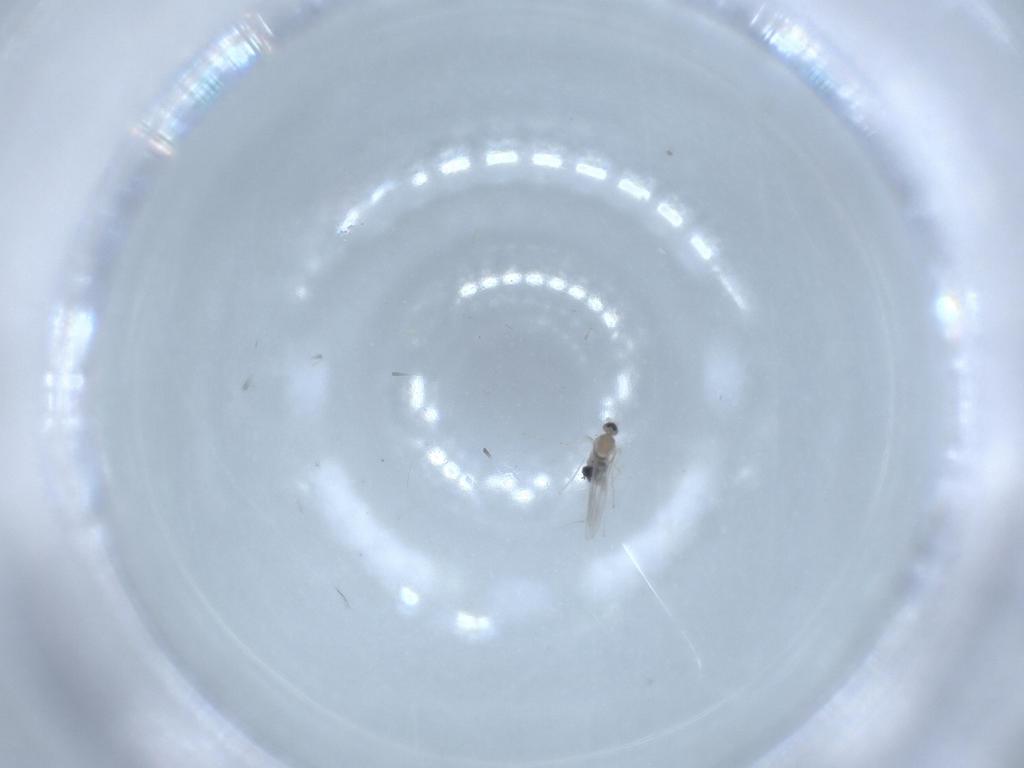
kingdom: Animalia
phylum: Arthropoda
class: Insecta
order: Diptera
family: Cecidomyiidae
